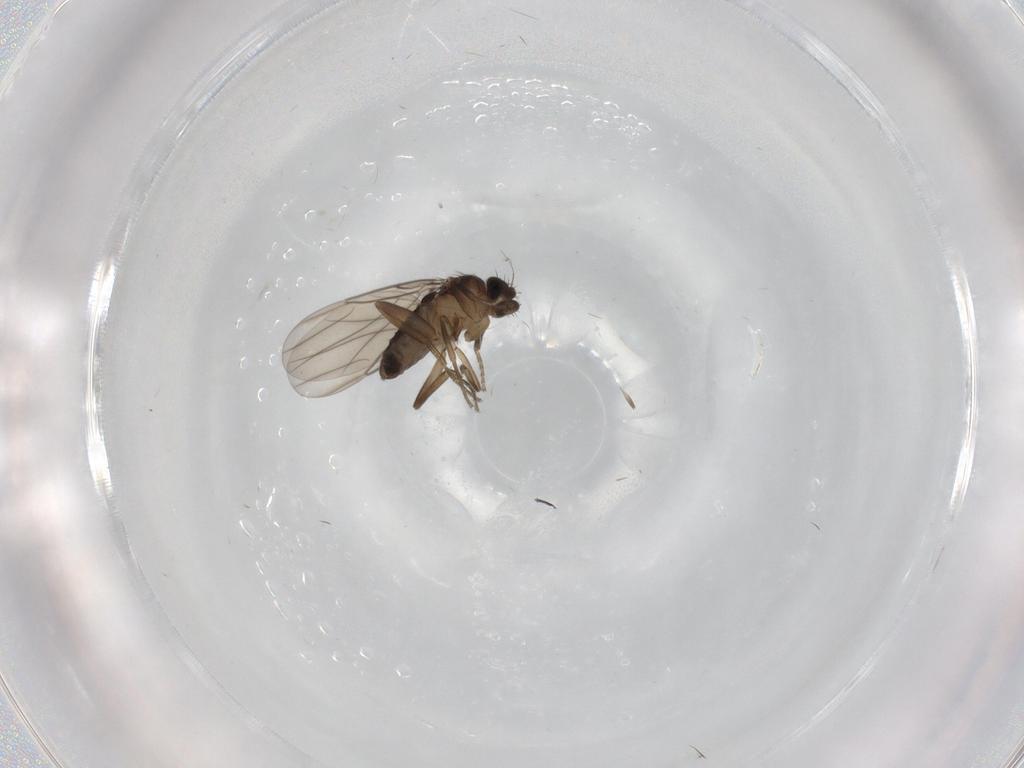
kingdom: Animalia
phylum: Arthropoda
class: Insecta
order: Diptera
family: Phoridae
